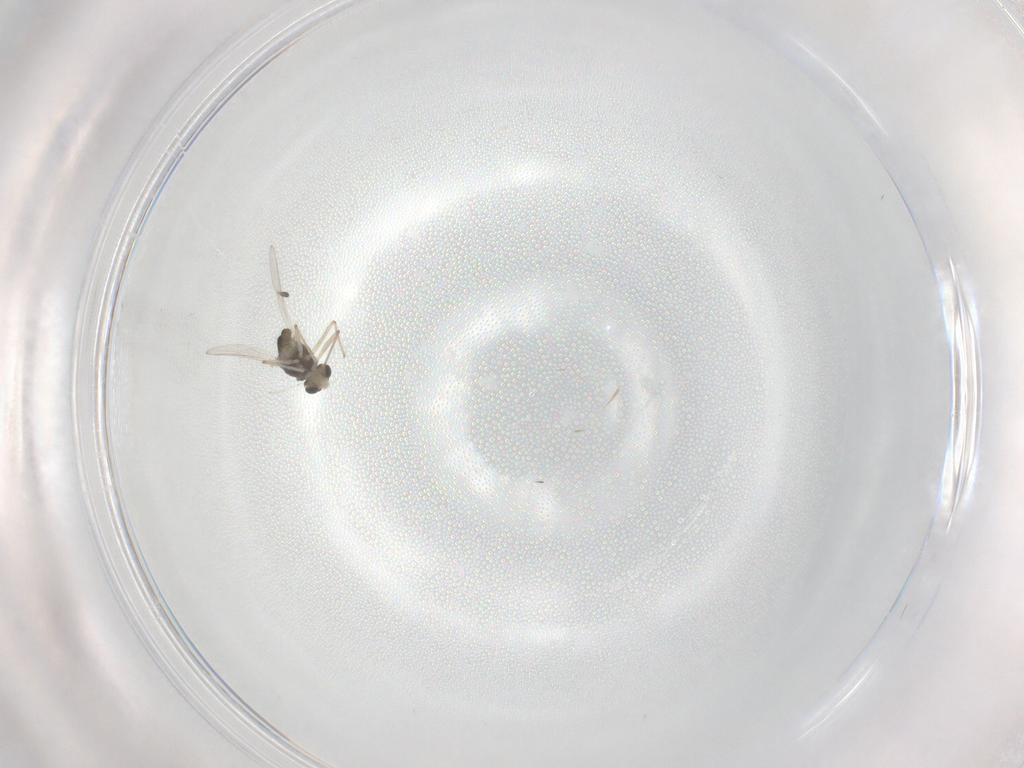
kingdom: Animalia
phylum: Arthropoda
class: Insecta
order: Diptera
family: Chironomidae
